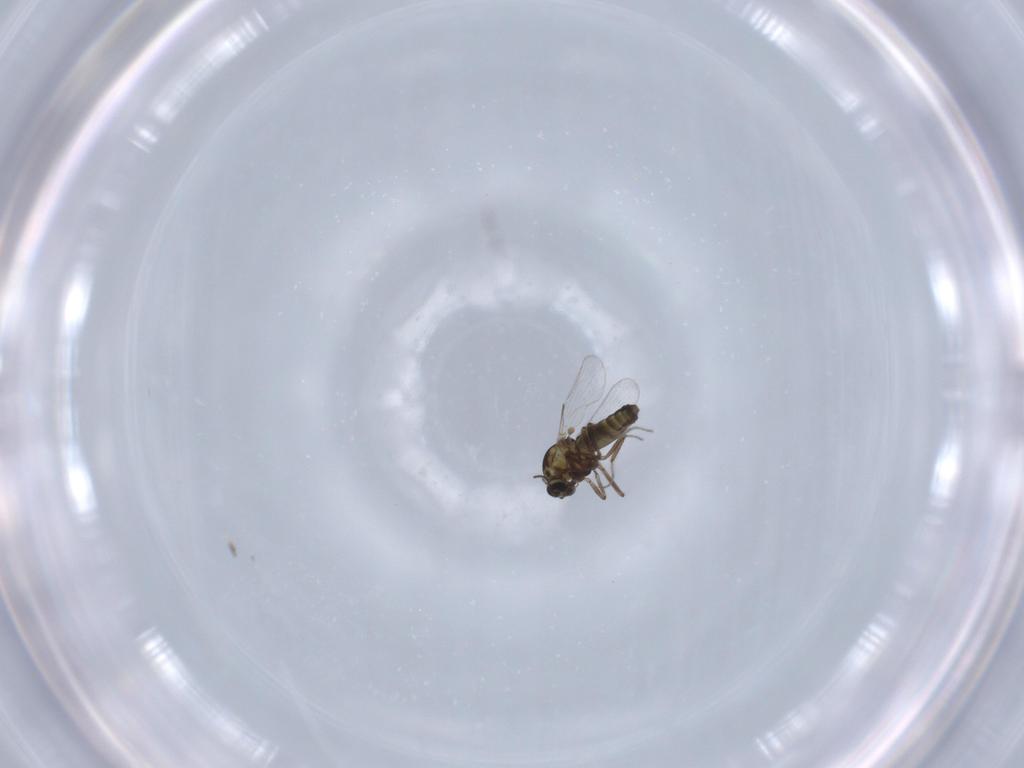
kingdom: Animalia
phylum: Arthropoda
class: Insecta
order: Diptera
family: Ceratopogonidae
